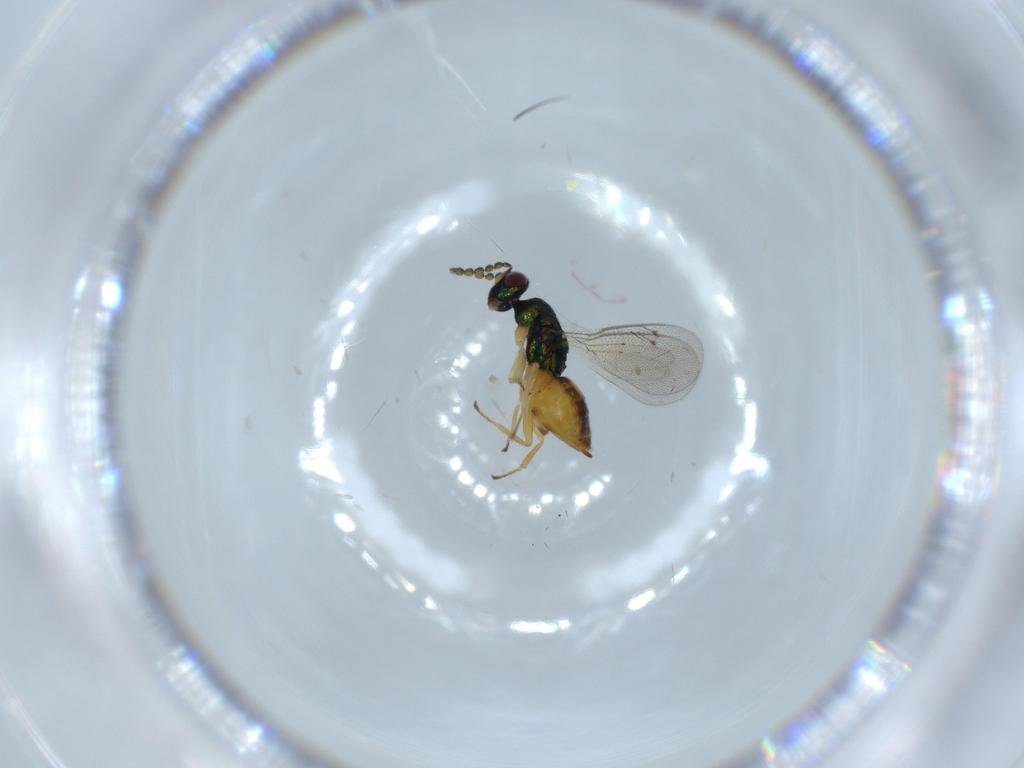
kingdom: Animalia
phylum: Arthropoda
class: Insecta
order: Hymenoptera
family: Eulophidae
